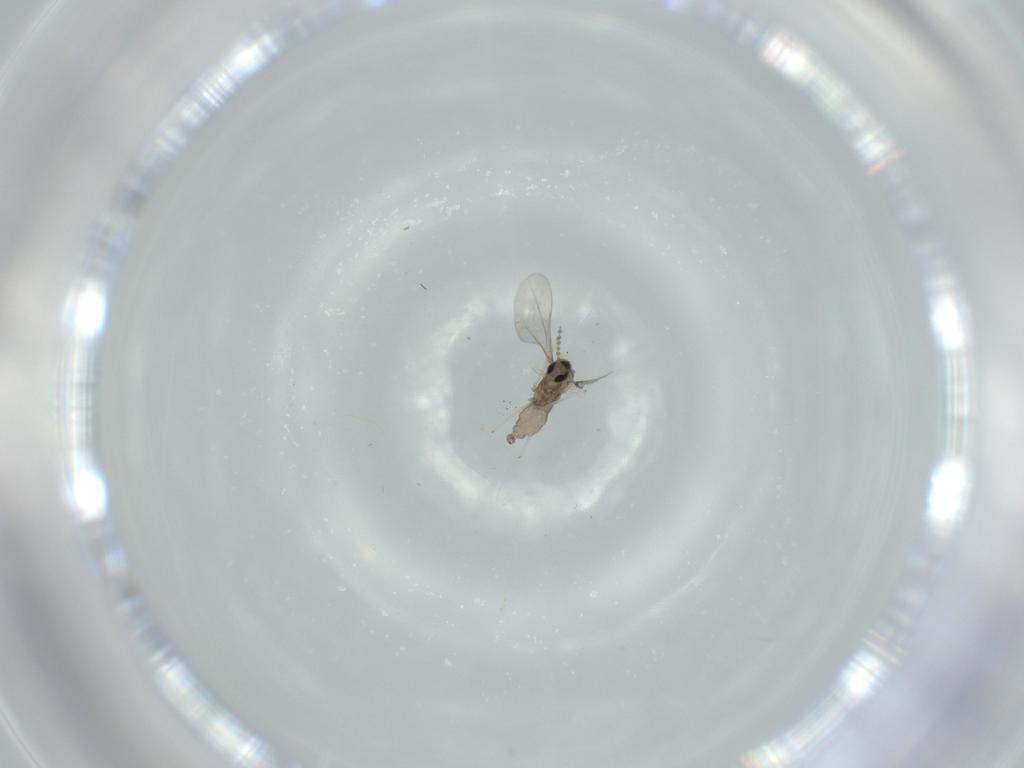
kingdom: Animalia
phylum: Arthropoda
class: Insecta
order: Diptera
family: Cecidomyiidae
